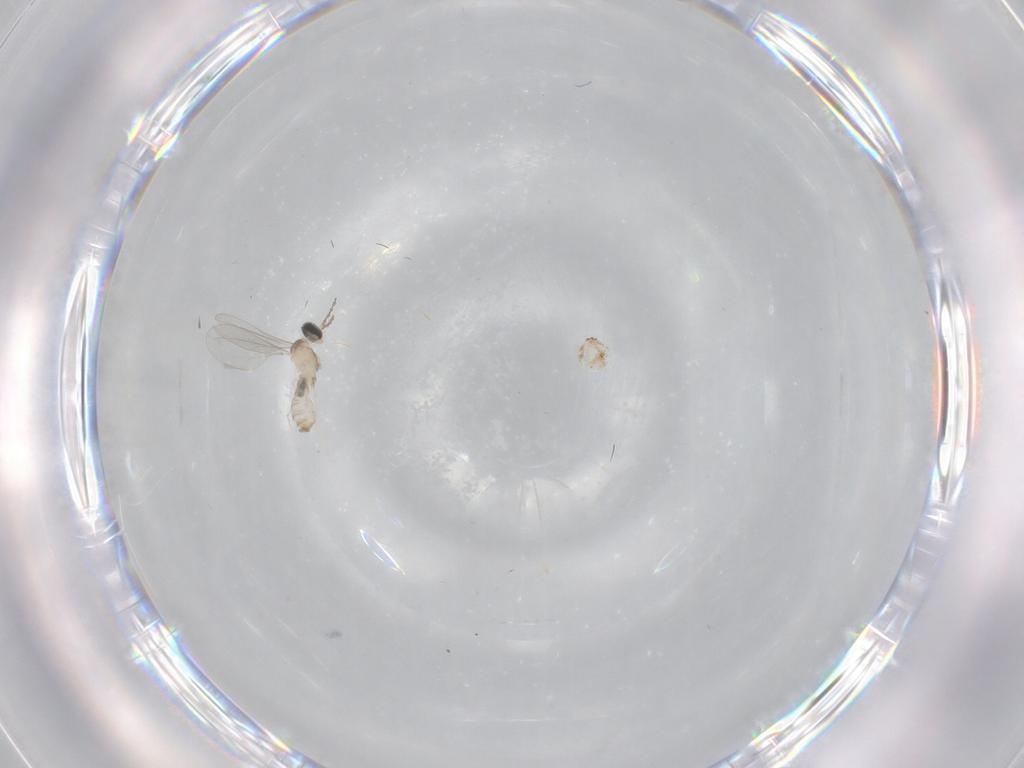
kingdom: Animalia
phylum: Arthropoda
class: Insecta
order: Diptera
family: Cecidomyiidae
